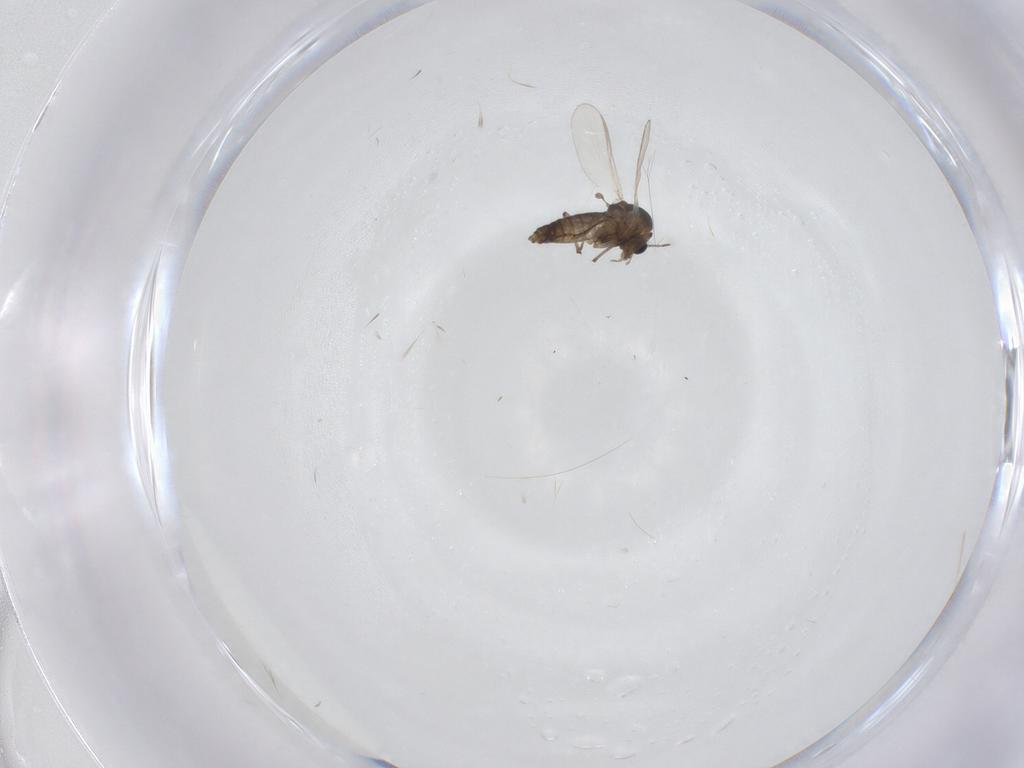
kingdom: Animalia
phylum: Arthropoda
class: Insecta
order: Diptera
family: Chironomidae
